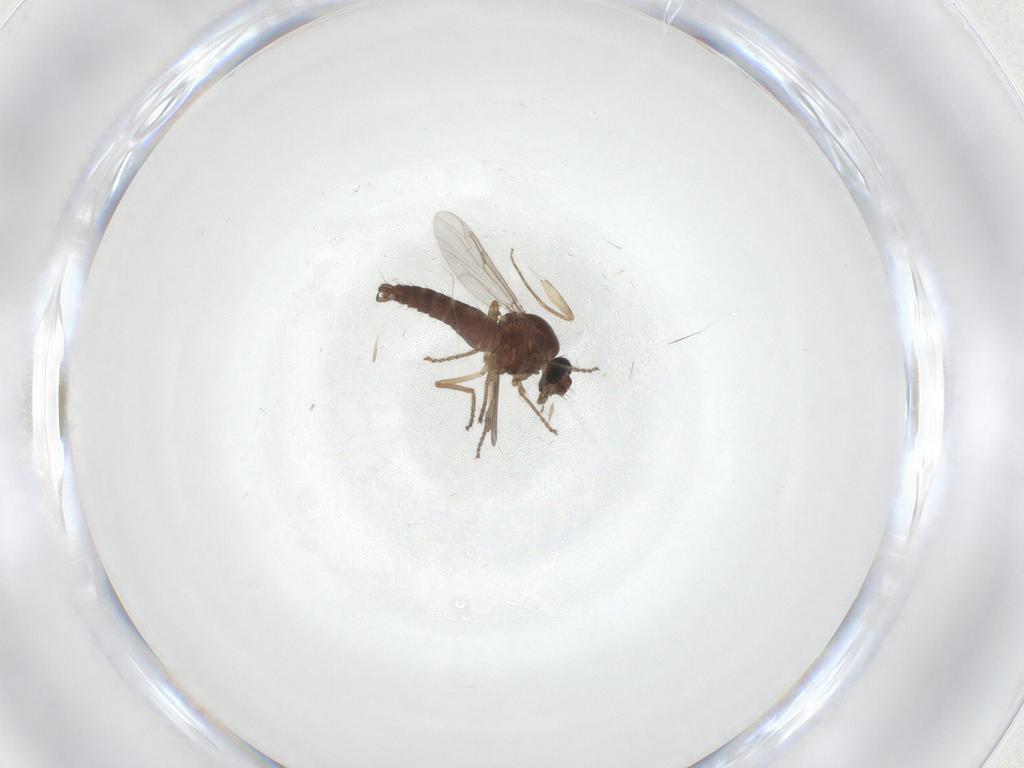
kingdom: Animalia
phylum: Arthropoda
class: Insecta
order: Diptera
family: Ceratopogonidae
